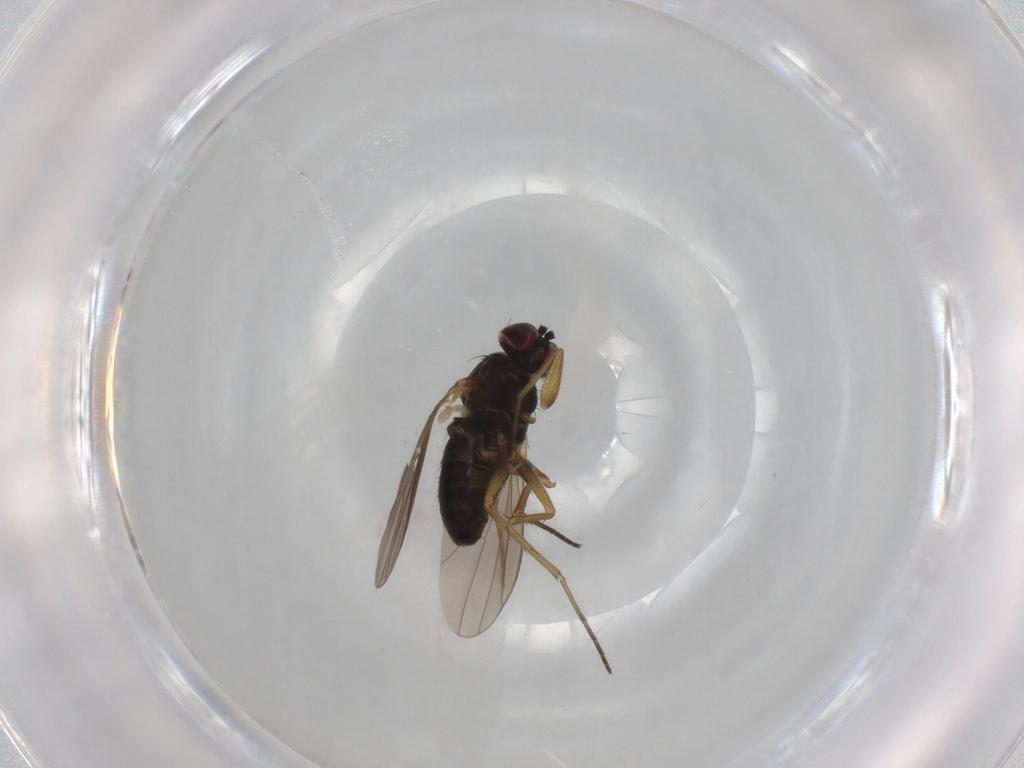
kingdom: Animalia
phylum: Arthropoda
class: Insecta
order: Diptera
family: Cecidomyiidae
